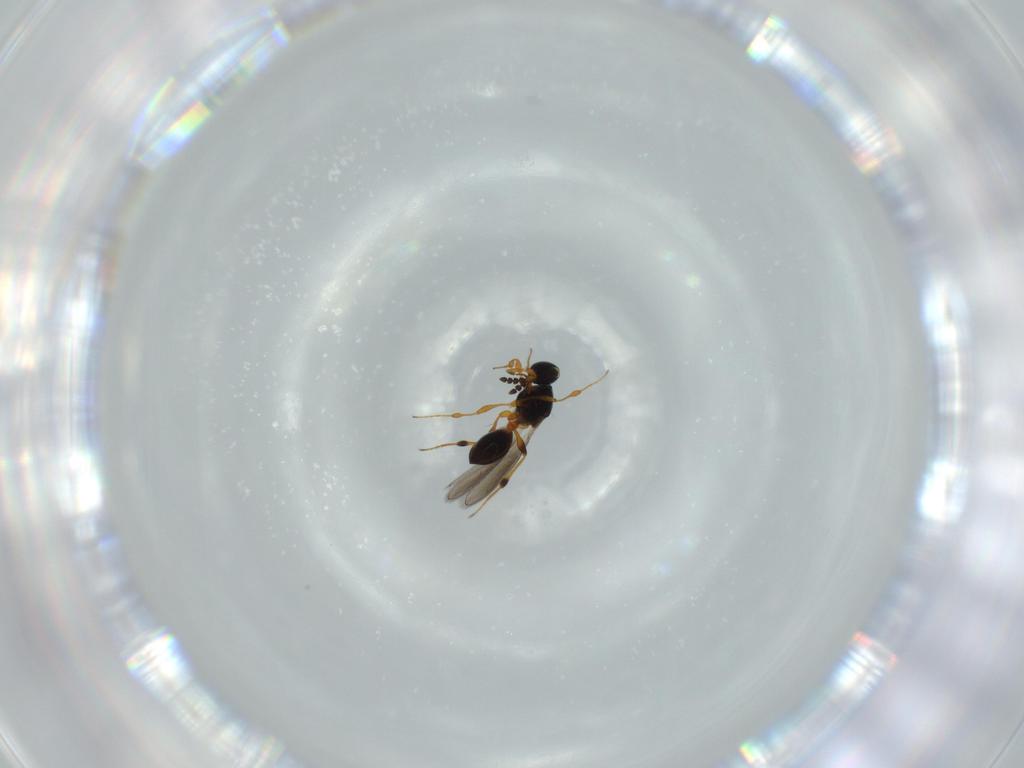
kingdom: Animalia
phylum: Arthropoda
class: Insecta
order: Hymenoptera
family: Platygastridae
